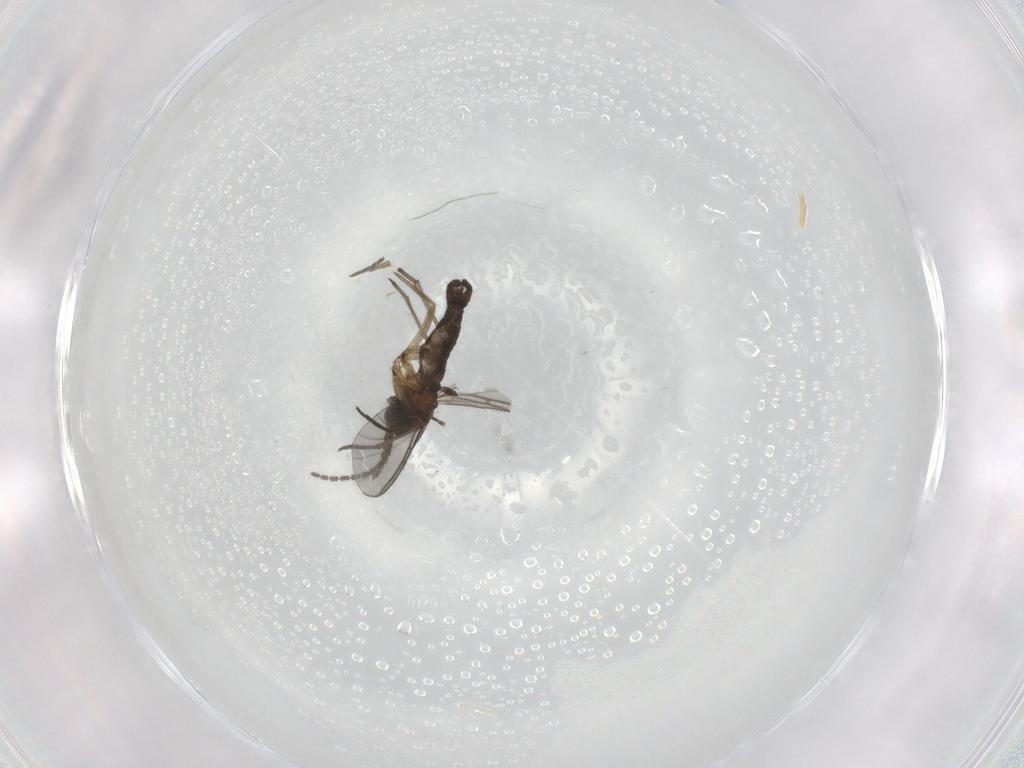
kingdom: Animalia
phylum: Arthropoda
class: Insecta
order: Diptera
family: Sciaridae
